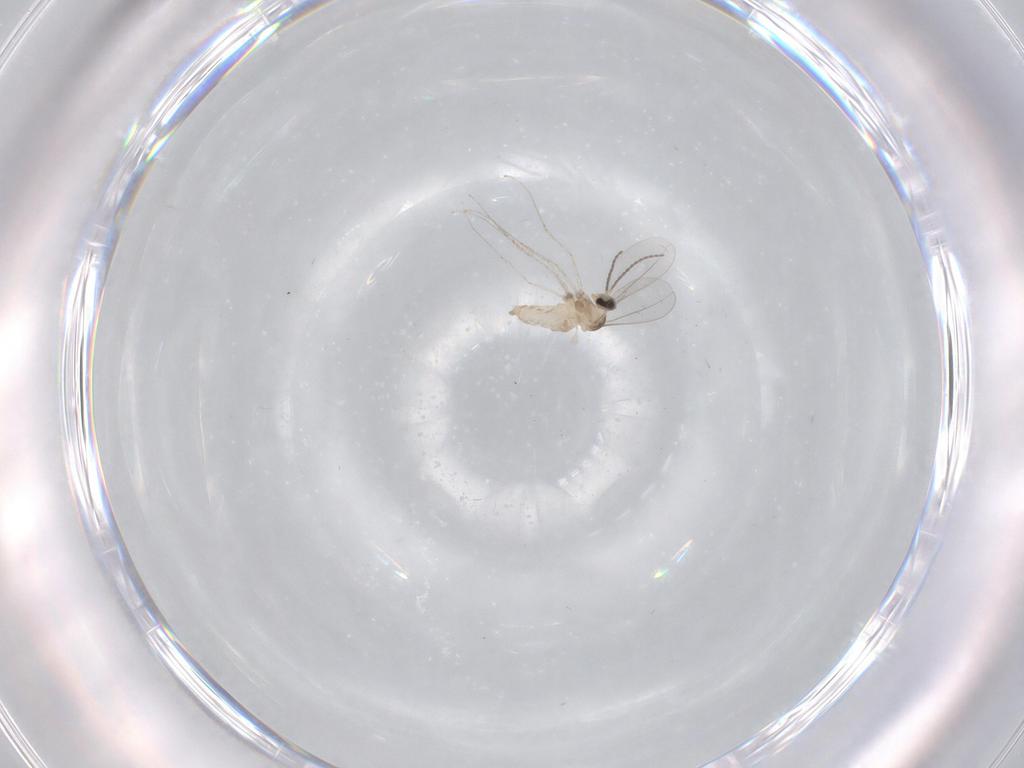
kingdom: Animalia
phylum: Arthropoda
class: Insecta
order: Diptera
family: Cecidomyiidae
